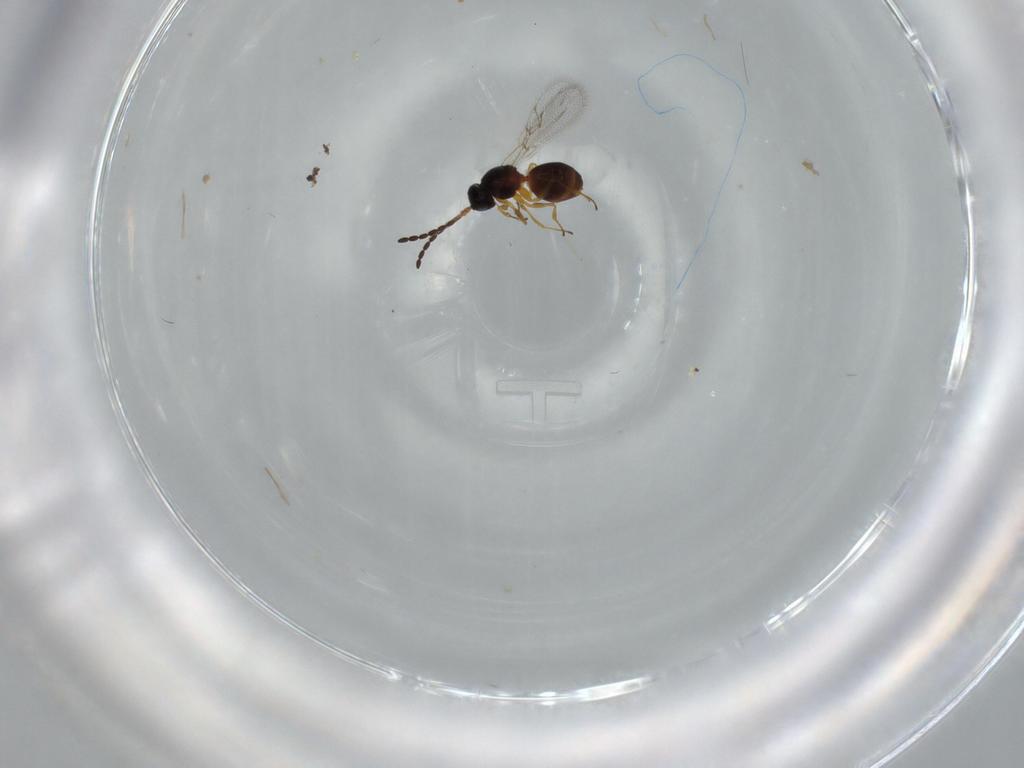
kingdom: Animalia
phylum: Arthropoda
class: Insecta
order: Hymenoptera
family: Figitidae
